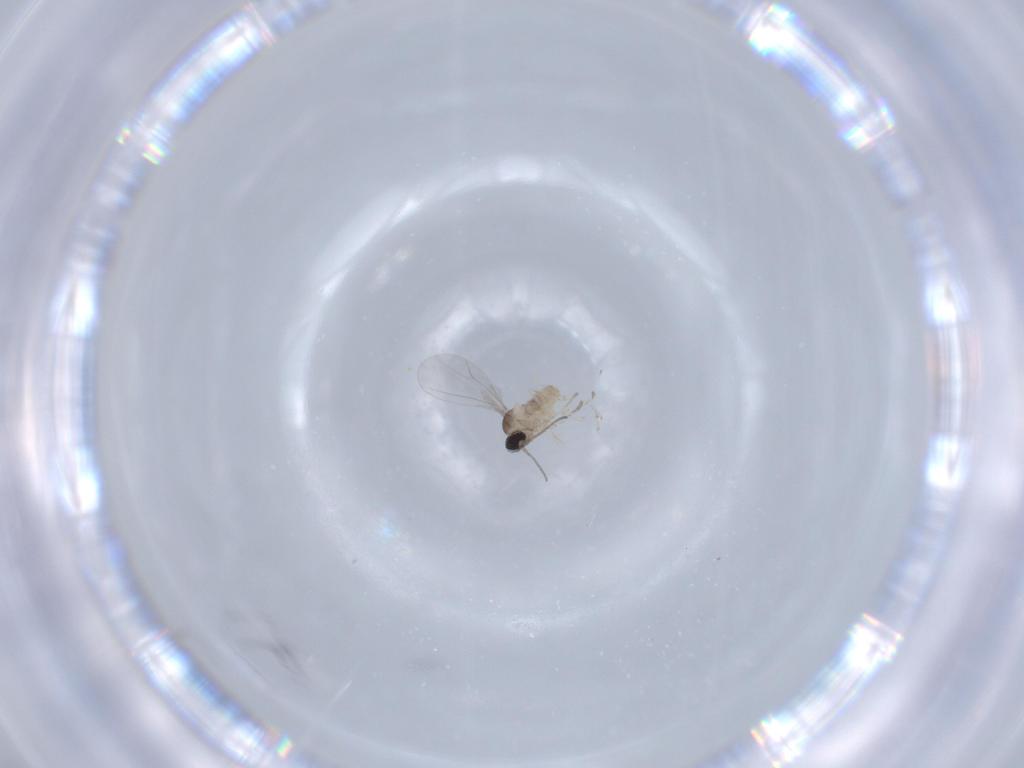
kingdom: Animalia
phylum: Arthropoda
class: Insecta
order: Diptera
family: Cecidomyiidae
